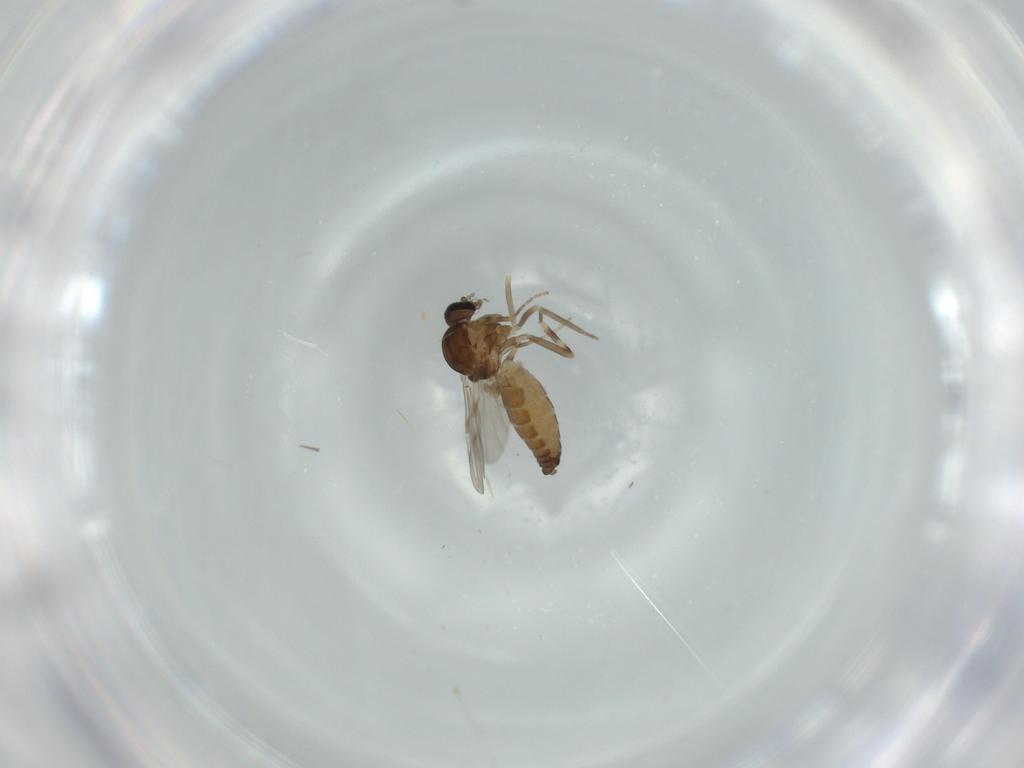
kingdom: Animalia
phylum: Arthropoda
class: Insecta
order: Diptera
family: Ceratopogonidae
